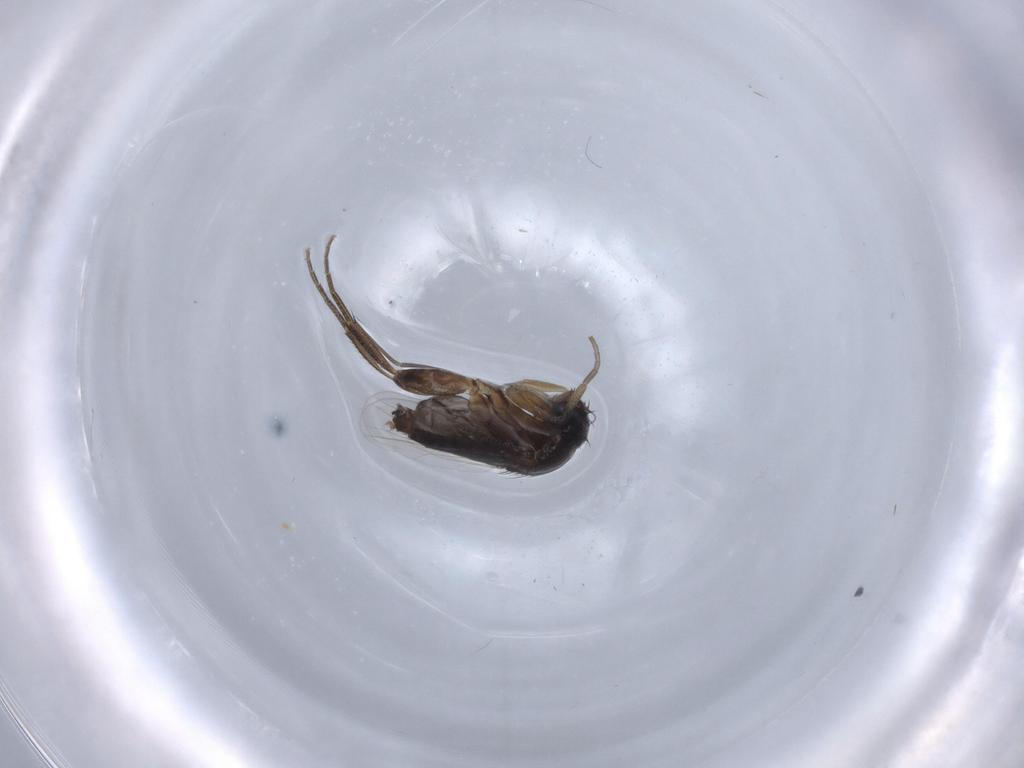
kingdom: Animalia
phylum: Arthropoda
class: Insecta
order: Diptera
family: Phoridae
